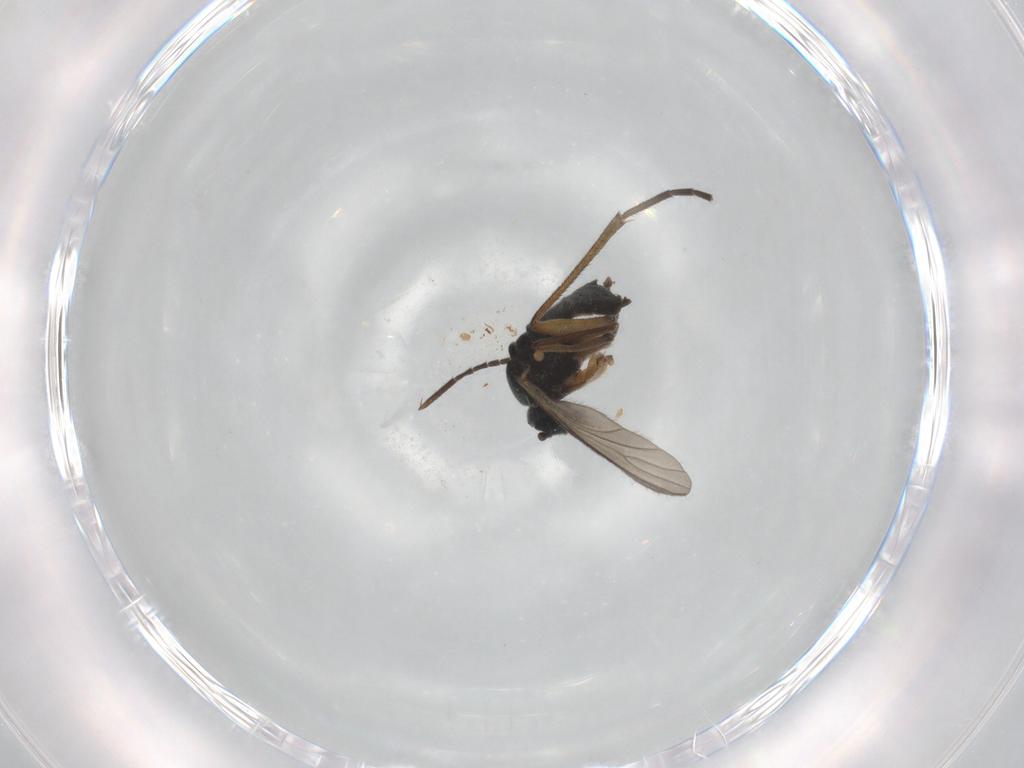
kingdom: Animalia
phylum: Arthropoda
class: Insecta
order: Diptera
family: Sciaridae
